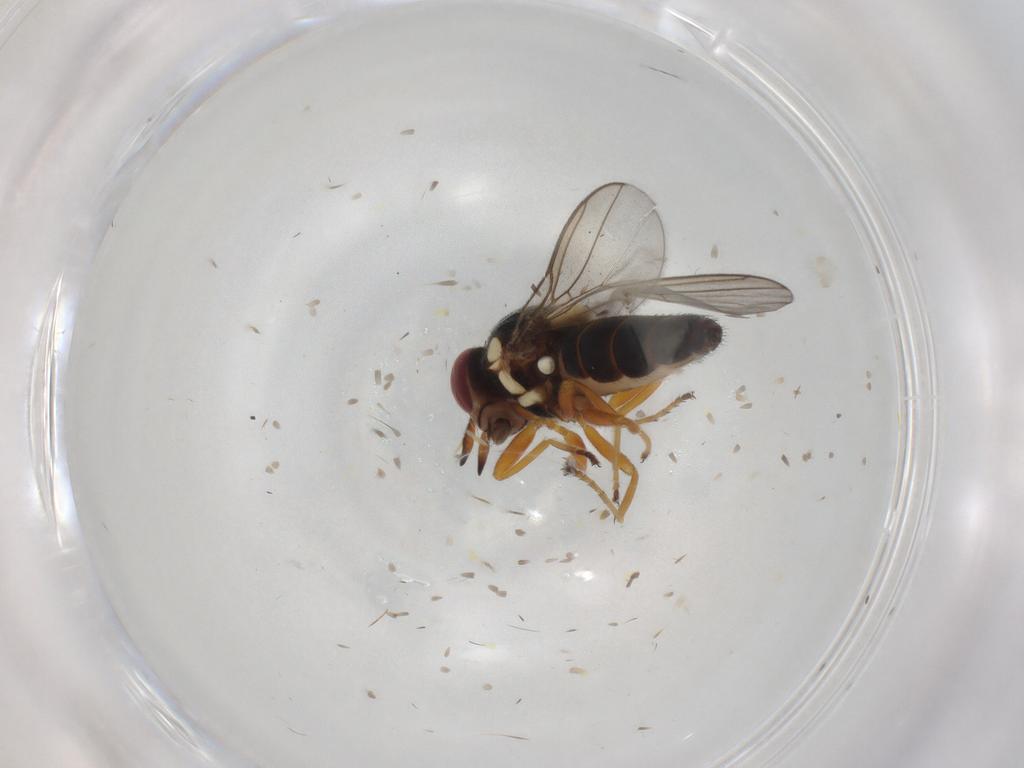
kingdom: Animalia
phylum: Arthropoda
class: Insecta
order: Diptera
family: Chloropidae
